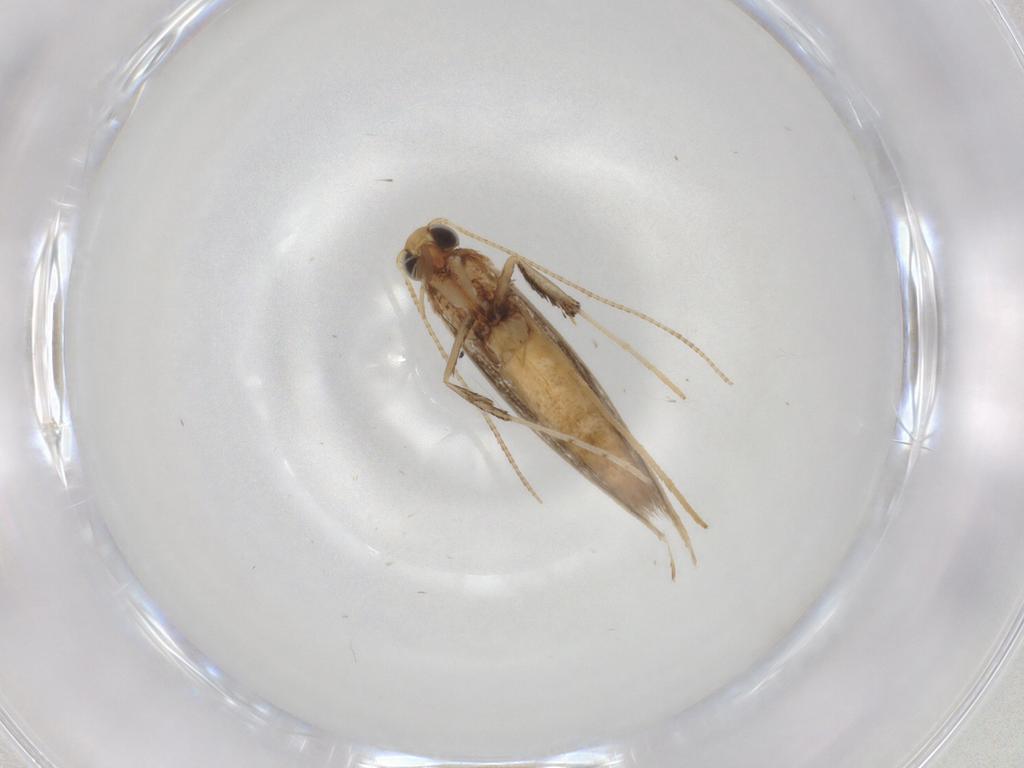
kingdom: Animalia
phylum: Arthropoda
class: Insecta
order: Lepidoptera
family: Gracillariidae
